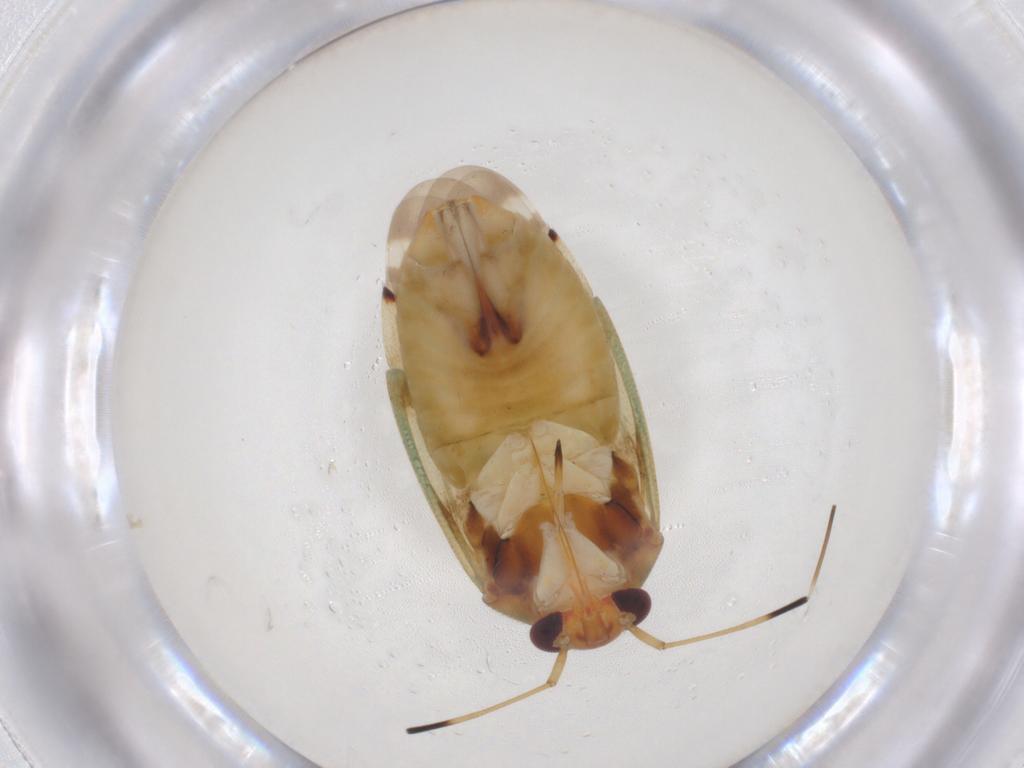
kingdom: Animalia
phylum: Arthropoda
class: Insecta
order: Hemiptera
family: Miridae
